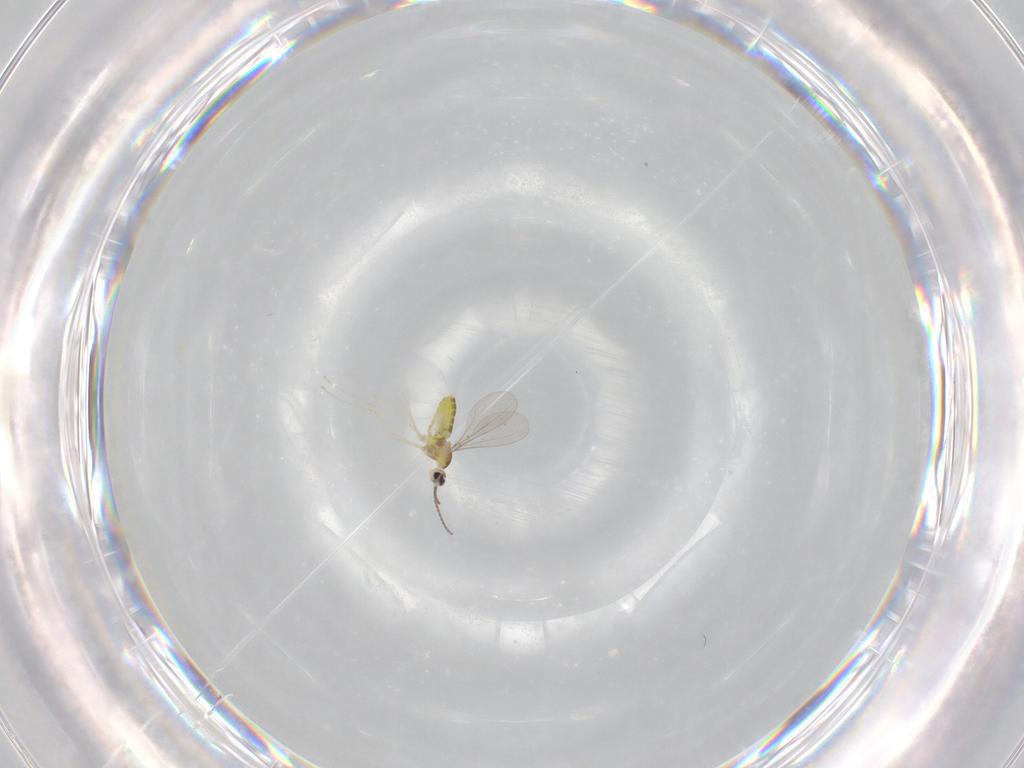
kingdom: Animalia
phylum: Arthropoda
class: Insecta
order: Diptera
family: Cecidomyiidae
